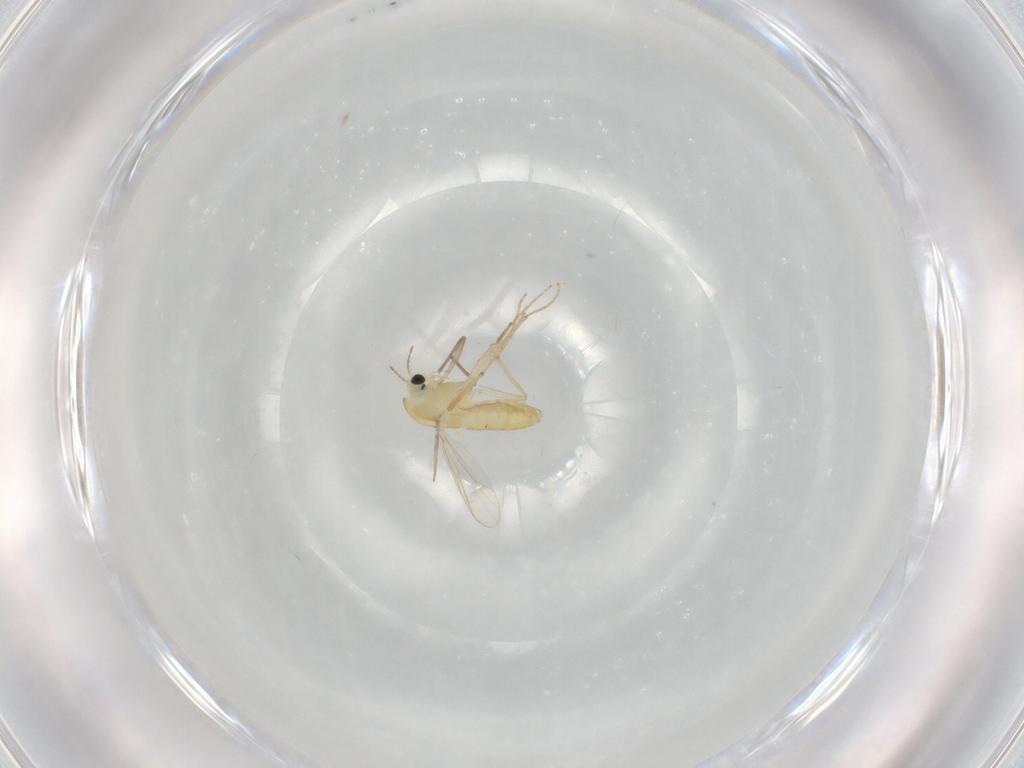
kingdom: Animalia
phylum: Arthropoda
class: Insecta
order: Diptera
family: Chironomidae
